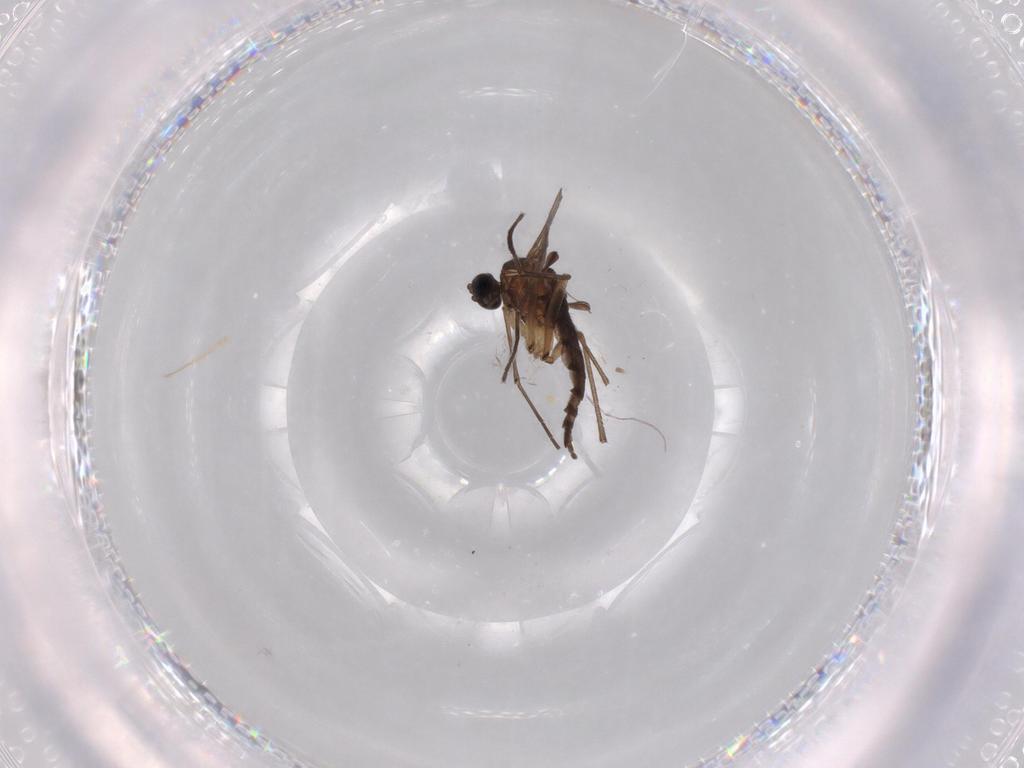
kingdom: Animalia
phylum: Arthropoda
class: Insecta
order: Diptera
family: Sciaridae
